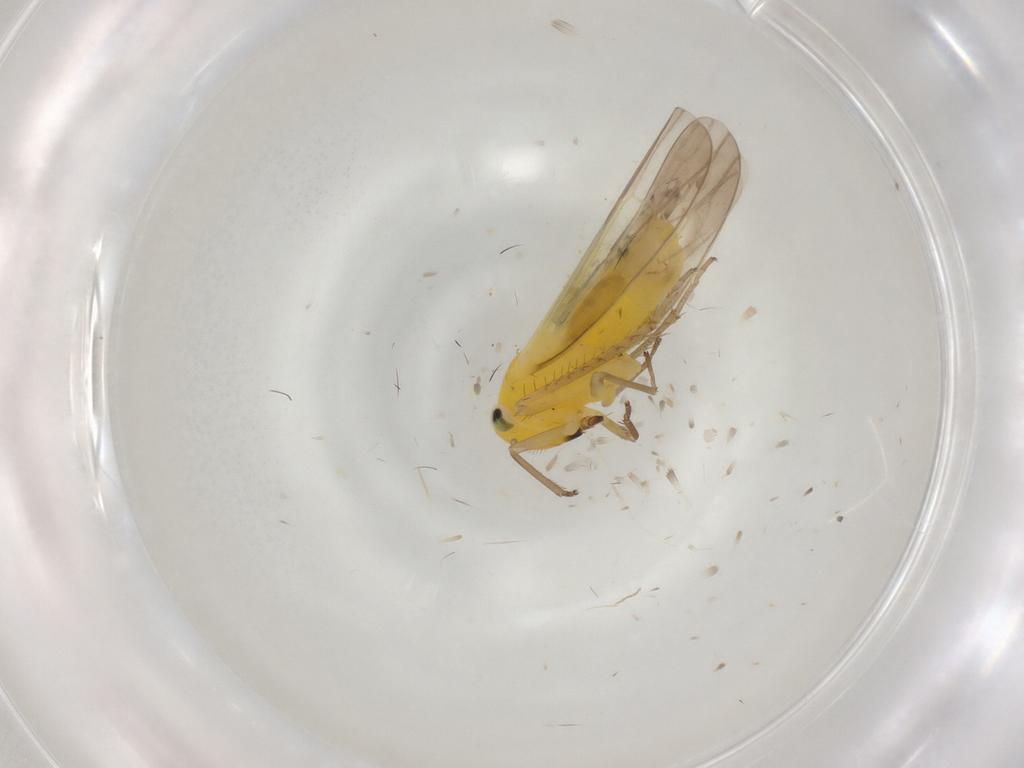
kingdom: Animalia
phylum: Arthropoda
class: Insecta
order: Hemiptera
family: Cicadellidae
